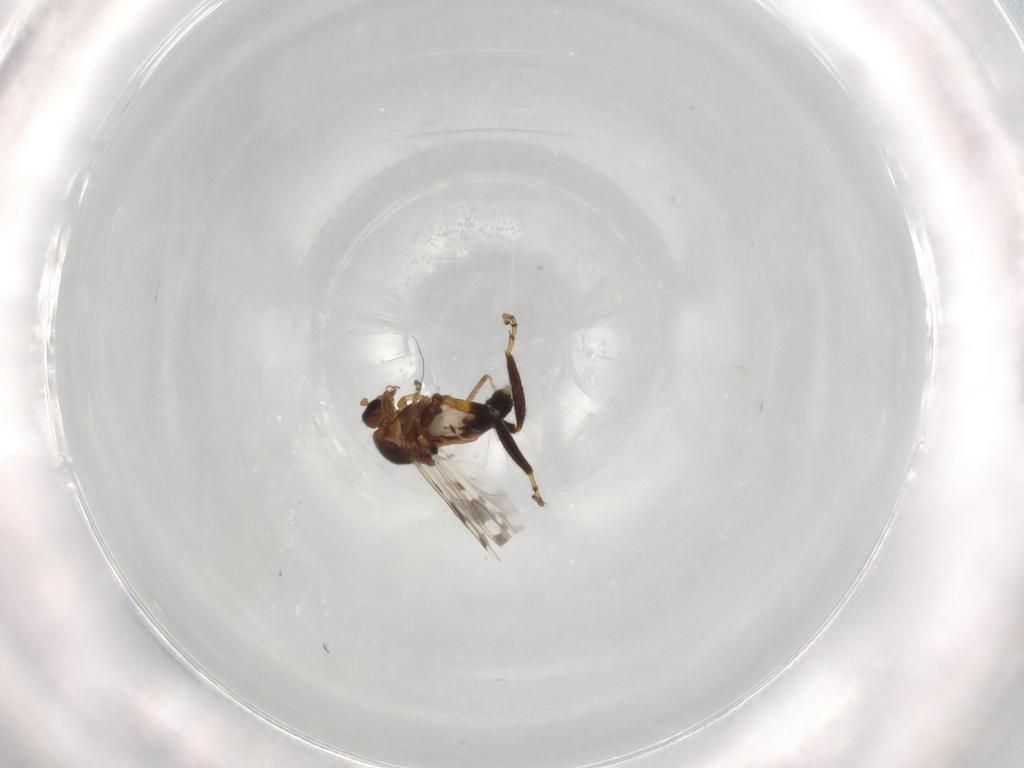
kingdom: Animalia
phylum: Arthropoda
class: Insecta
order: Diptera
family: Ceratopogonidae
